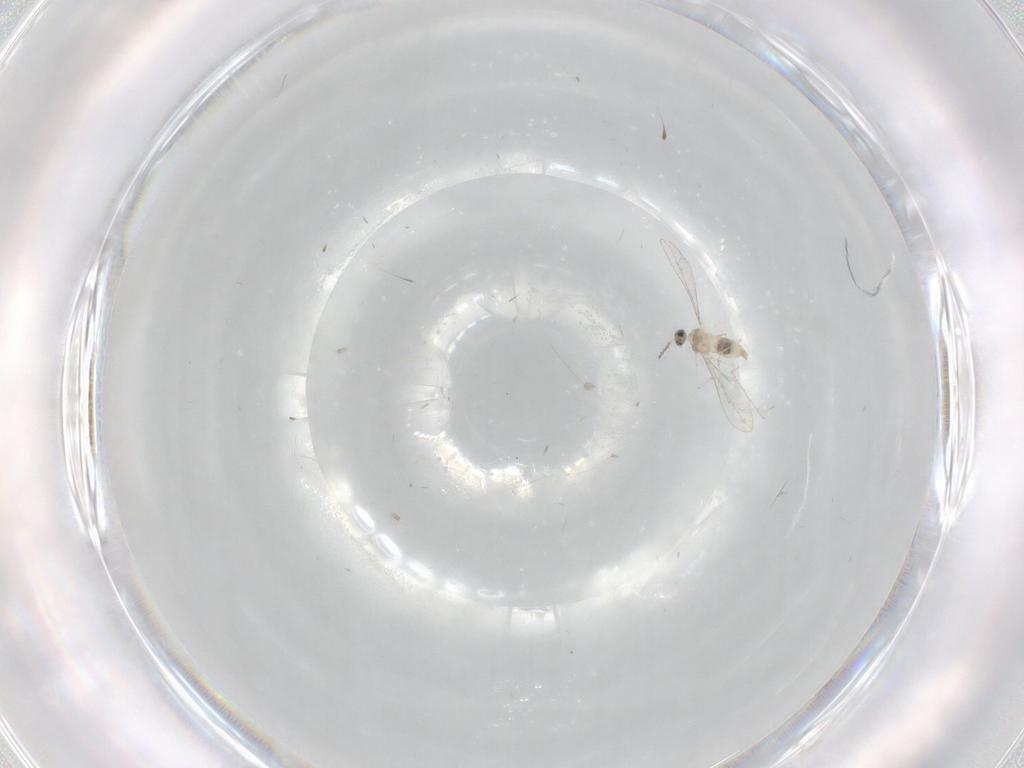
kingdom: Animalia
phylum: Arthropoda
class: Insecta
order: Diptera
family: Cecidomyiidae
